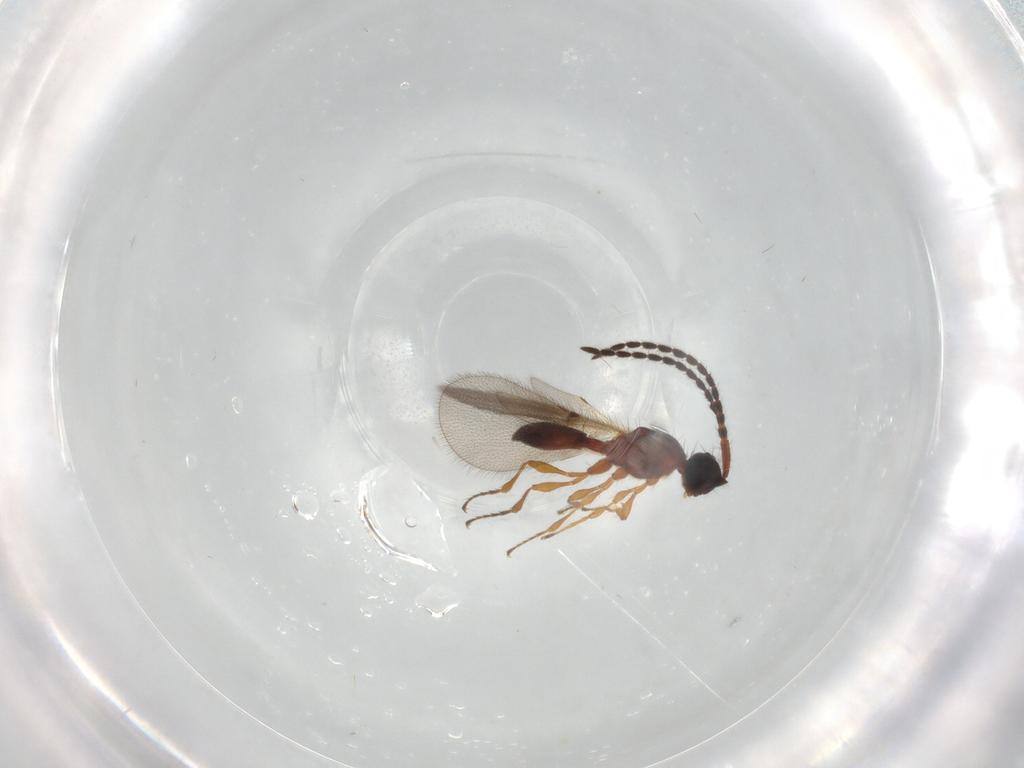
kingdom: Animalia
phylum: Arthropoda
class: Insecta
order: Hymenoptera
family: Diapriidae
